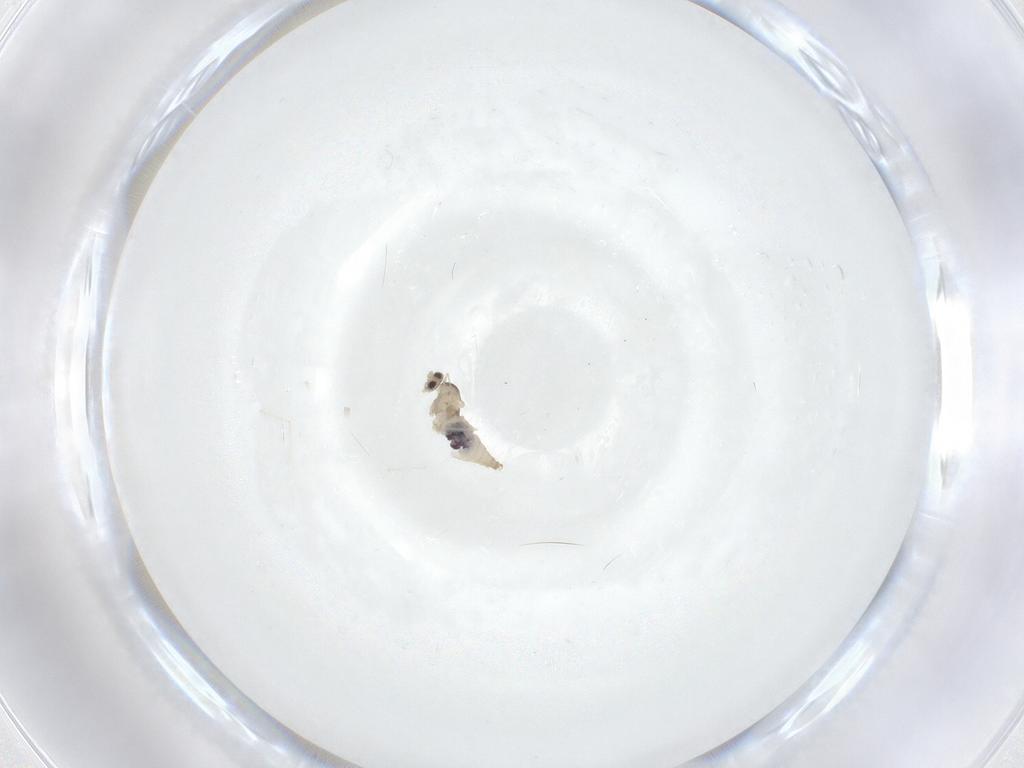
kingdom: Animalia
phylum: Arthropoda
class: Insecta
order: Diptera
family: Cecidomyiidae
